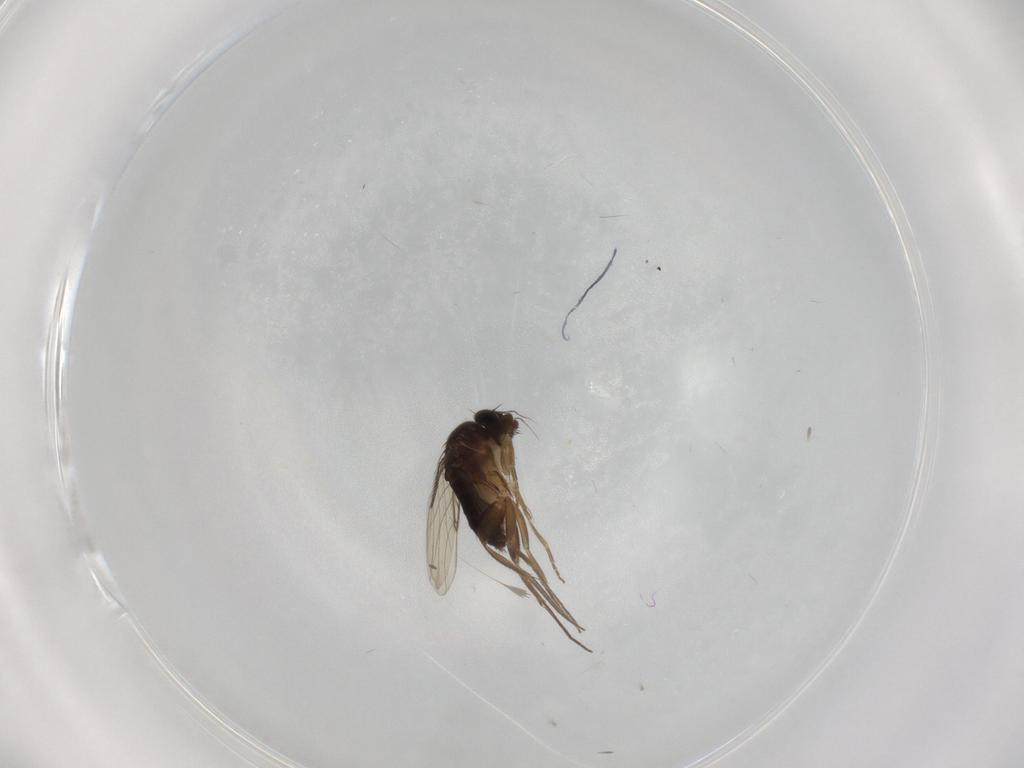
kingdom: Animalia
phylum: Arthropoda
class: Insecta
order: Diptera
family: Phoridae
